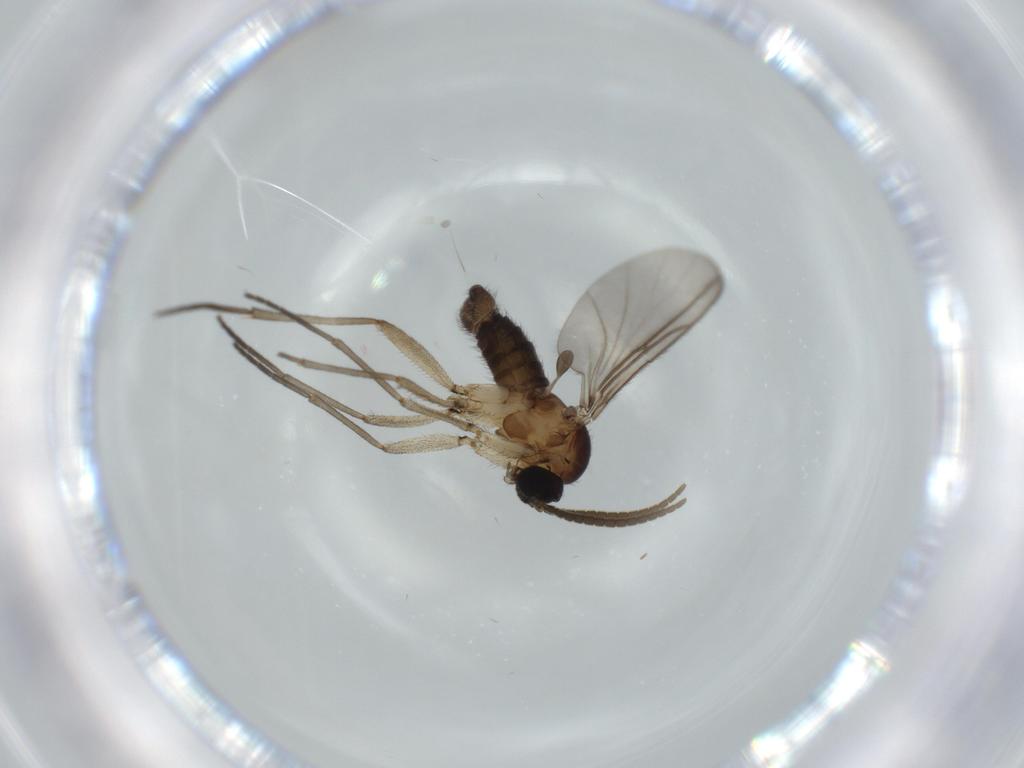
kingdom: Animalia
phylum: Arthropoda
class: Insecta
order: Diptera
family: Sciaridae
